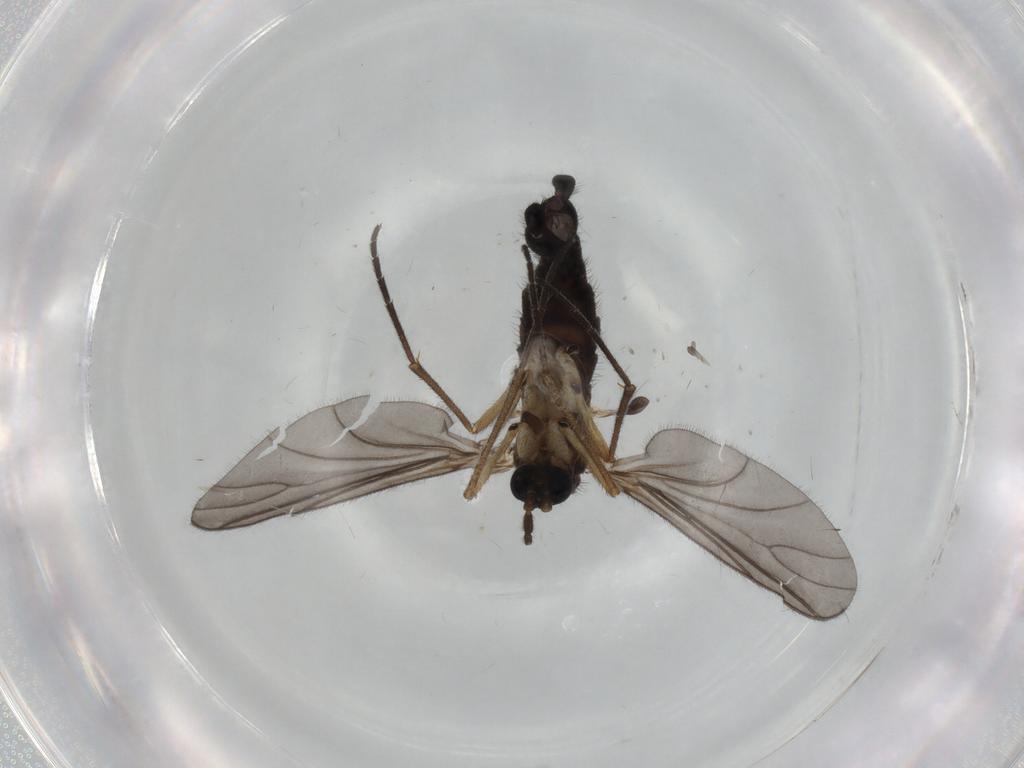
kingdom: Animalia
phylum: Arthropoda
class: Insecta
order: Diptera
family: Sciaridae
